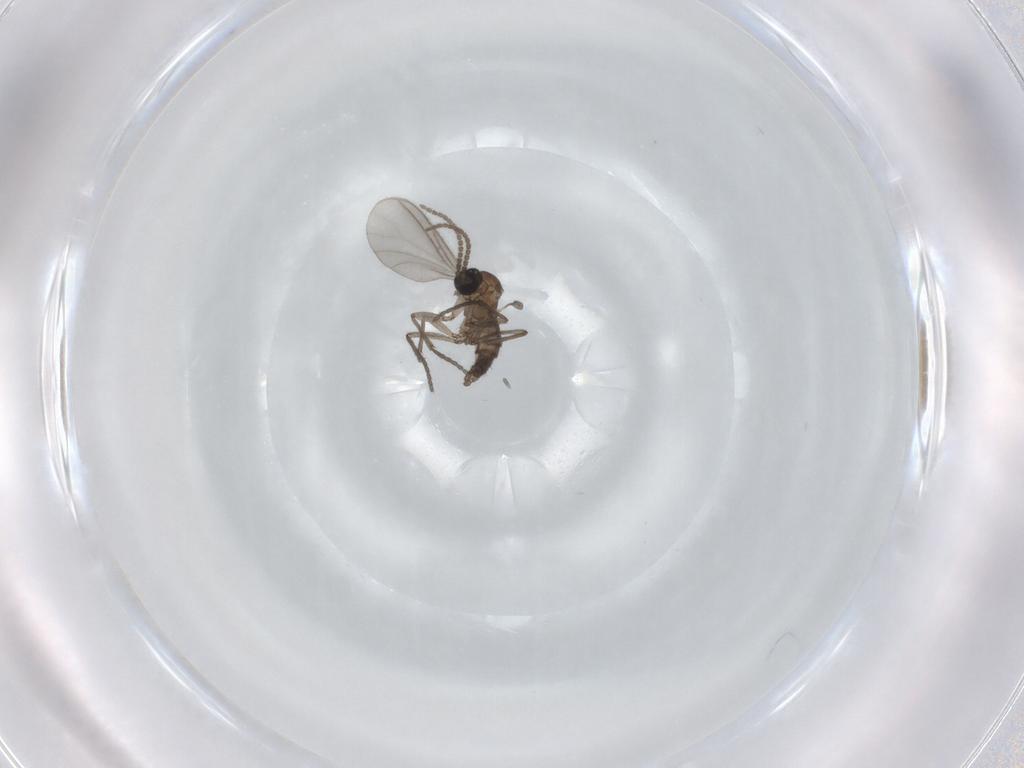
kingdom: Animalia
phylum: Arthropoda
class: Insecta
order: Diptera
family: Sciaridae
